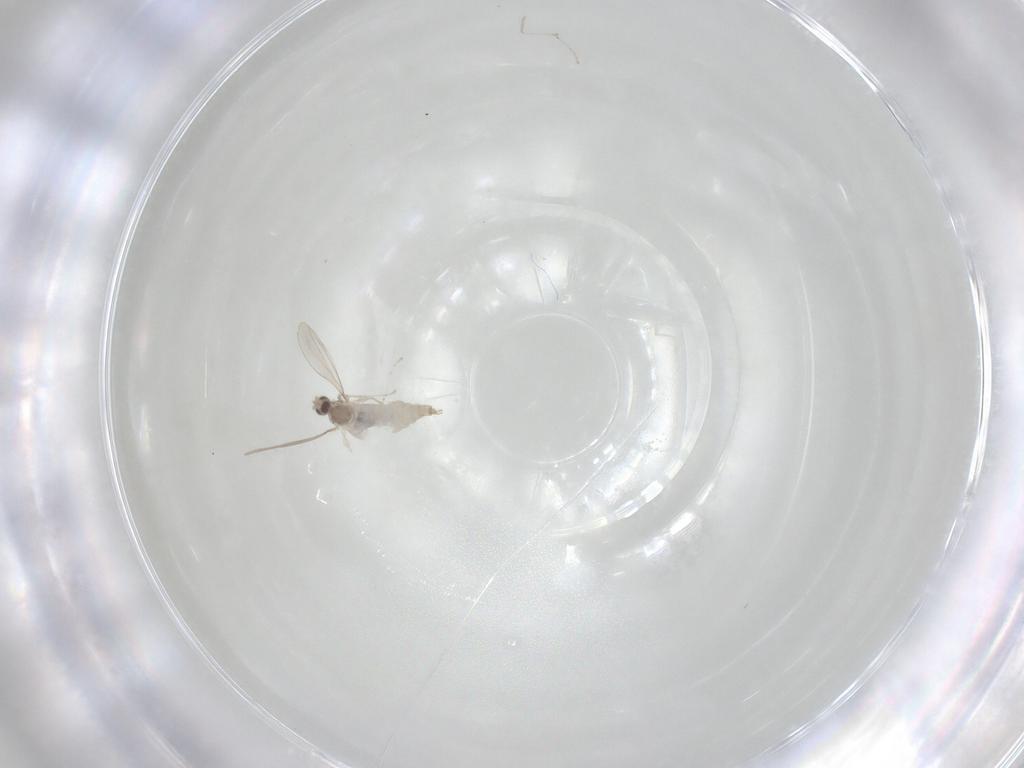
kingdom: Animalia
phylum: Arthropoda
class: Insecta
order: Diptera
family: Cecidomyiidae
